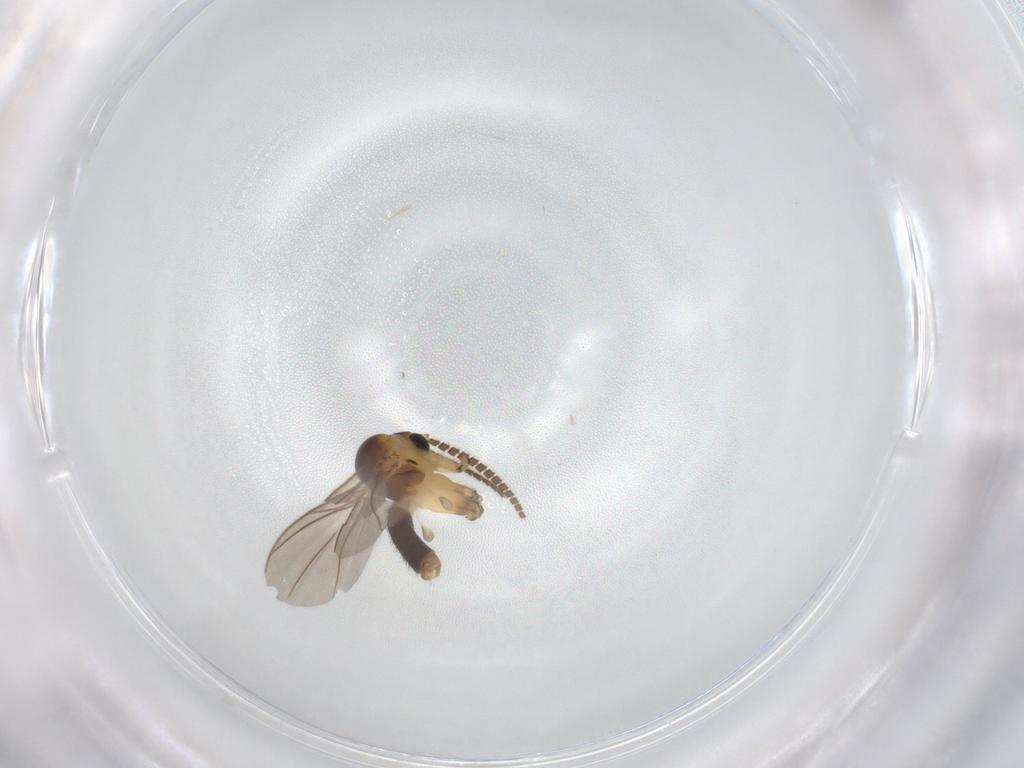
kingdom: Animalia
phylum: Arthropoda
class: Insecta
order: Diptera
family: Mycetophilidae
